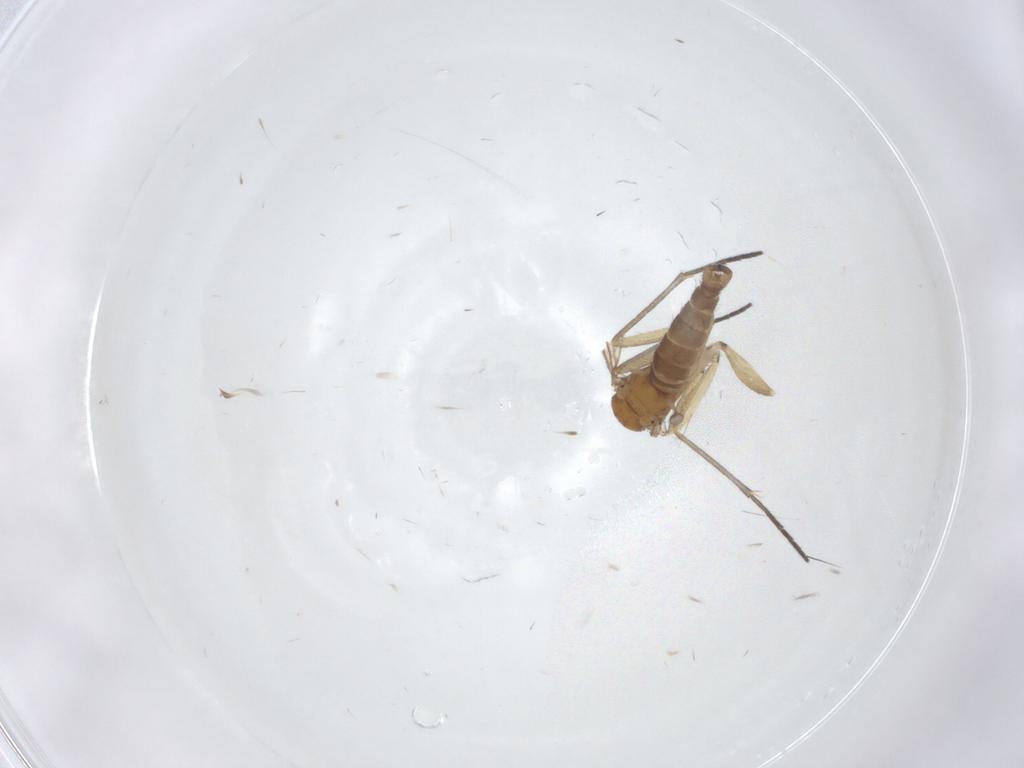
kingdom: Animalia
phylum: Arthropoda
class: Insecta
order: Diptera
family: Sciaridae
